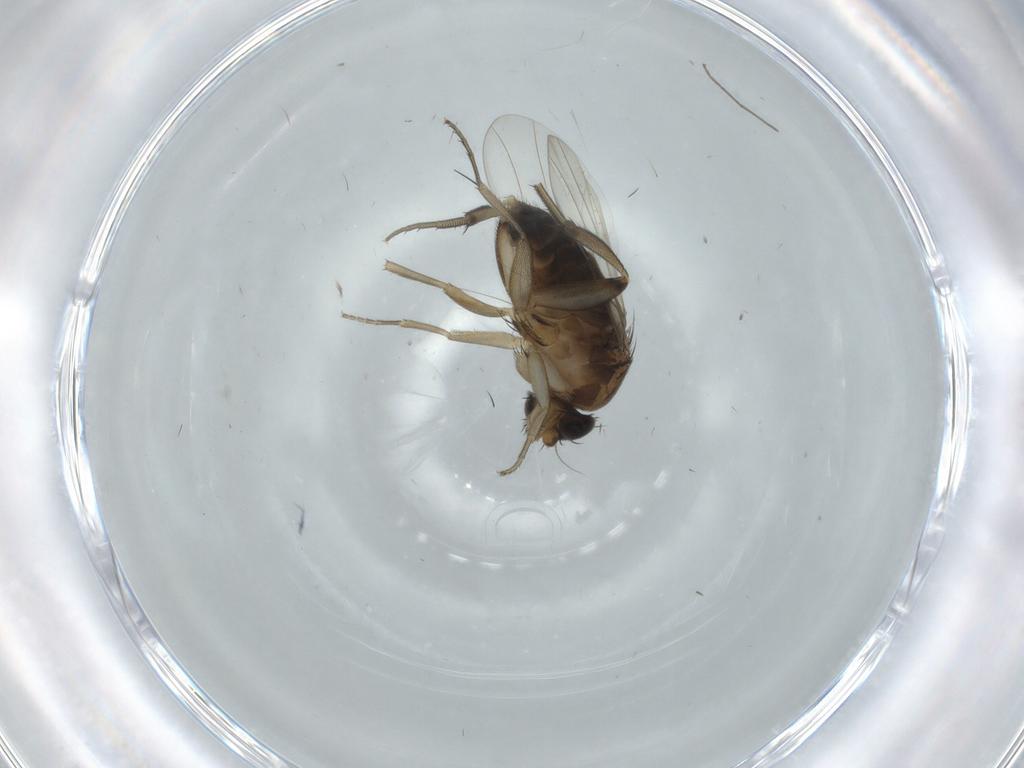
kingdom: Animalia
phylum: Arthropoda
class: Insecta
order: Diptera
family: Phoridae
